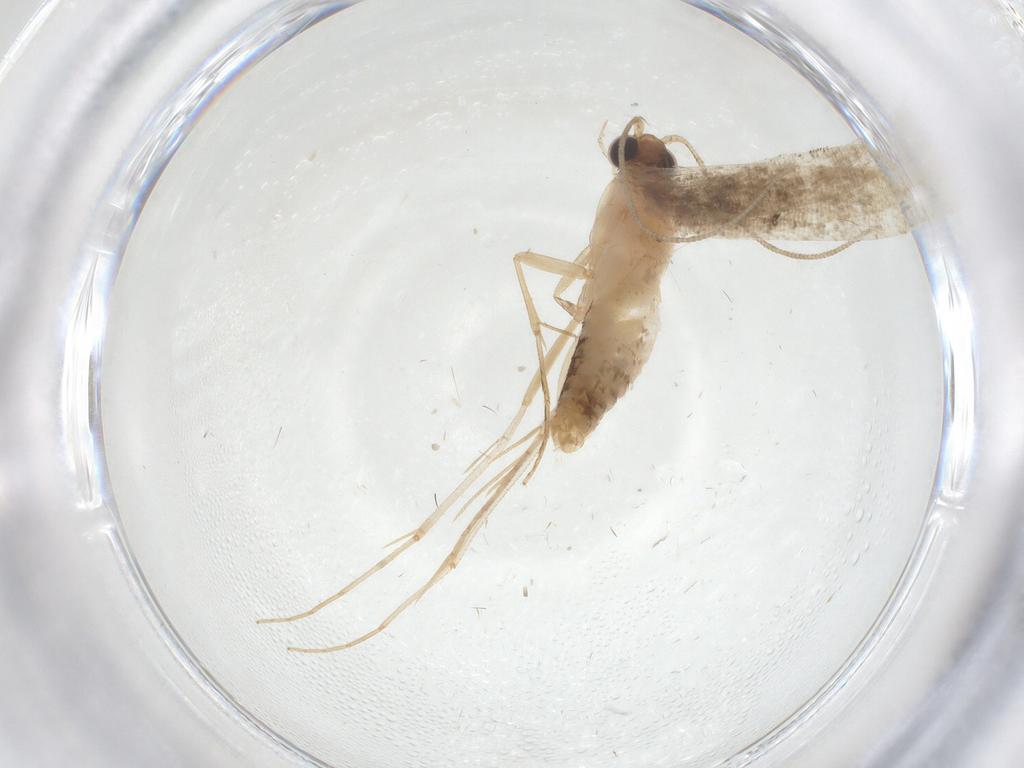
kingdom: Animalia
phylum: Arthropoda
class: Insecta
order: Lepidoptera
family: Tineidae
